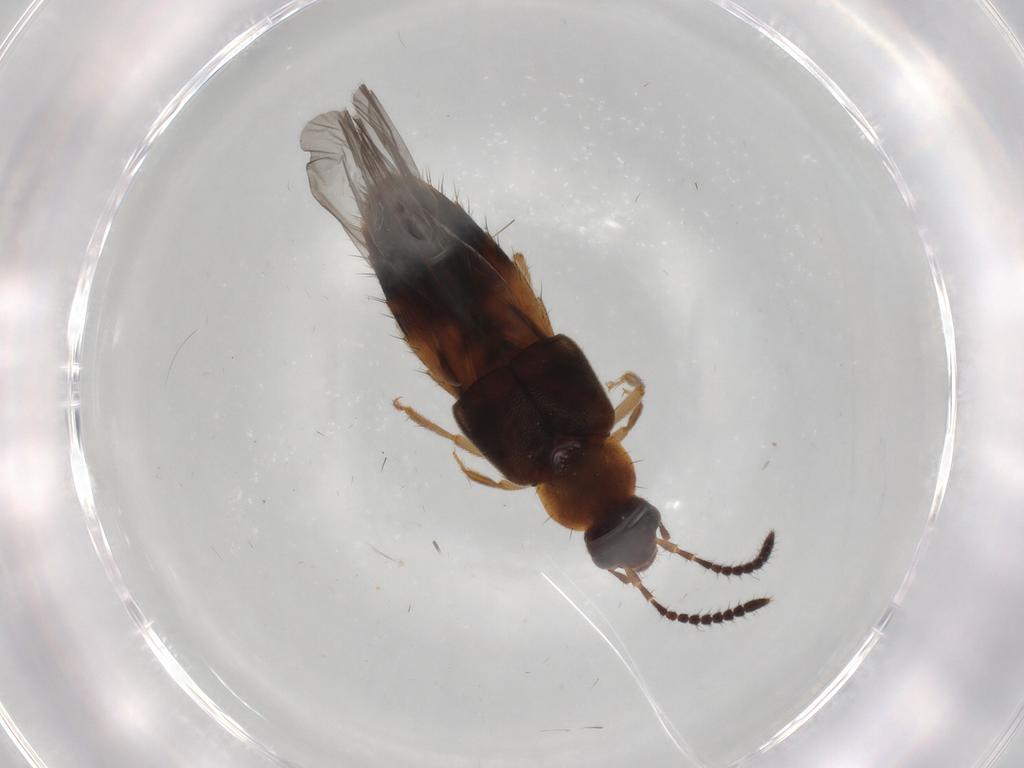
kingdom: Animalia
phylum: Arthropoda
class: Insecta
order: Coleoptera
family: Staphylinidae
